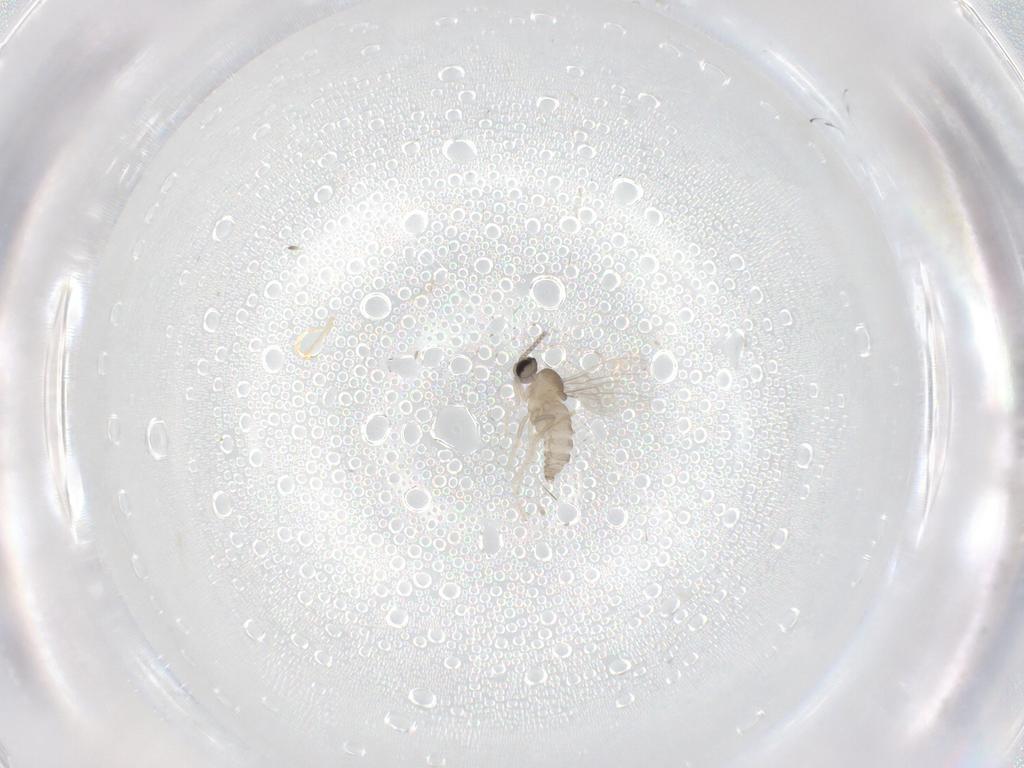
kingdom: Animalia
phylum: Arthropoda
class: Insecta
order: Diptera
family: Cecidomyiidae
